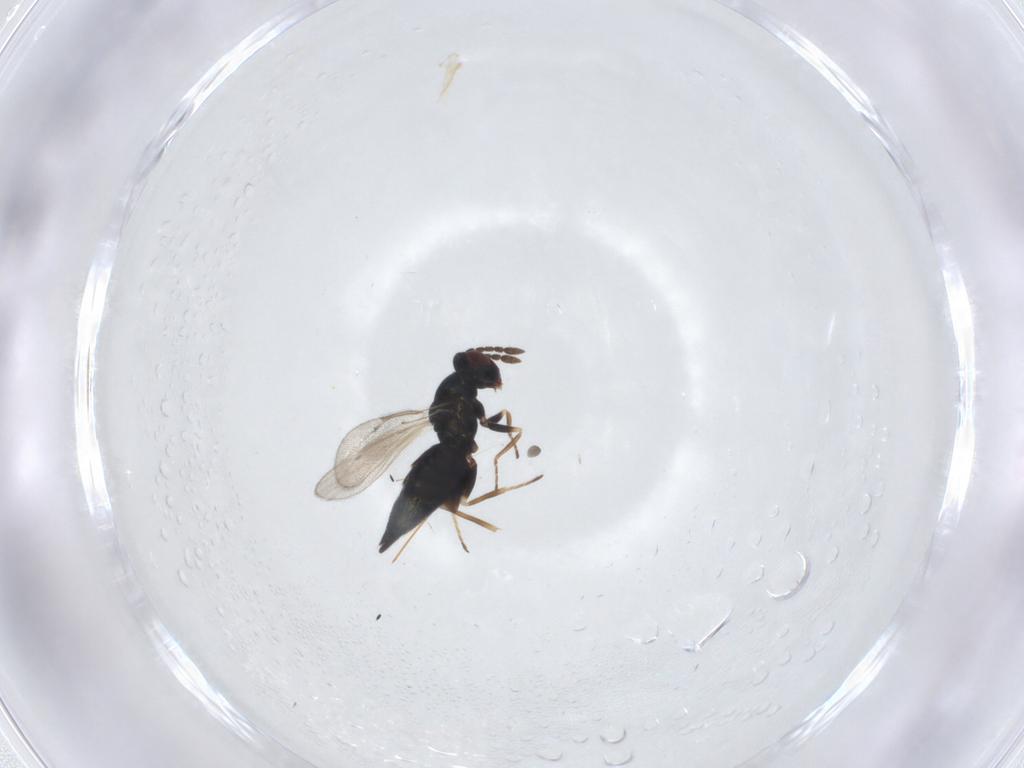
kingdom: Animalia
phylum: Arthropoda
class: Insecta
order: Hymenoptera
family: Eulophidae
